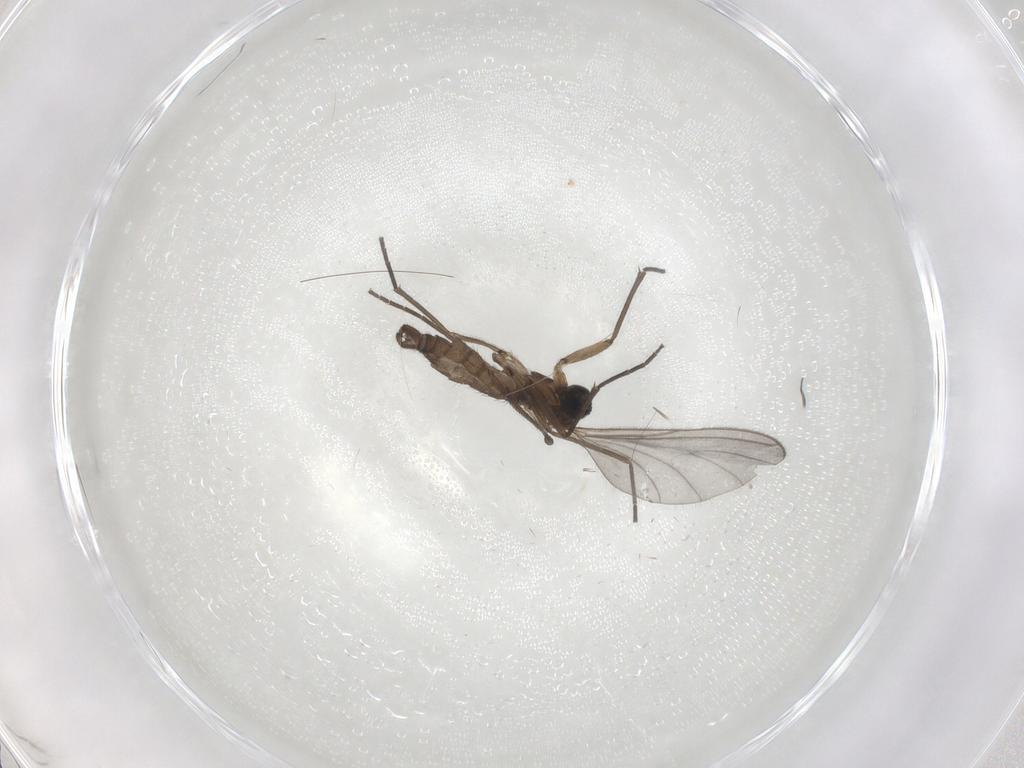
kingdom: Animalia
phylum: Arthropoda
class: Insecta
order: Diptera
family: Sciaridae
